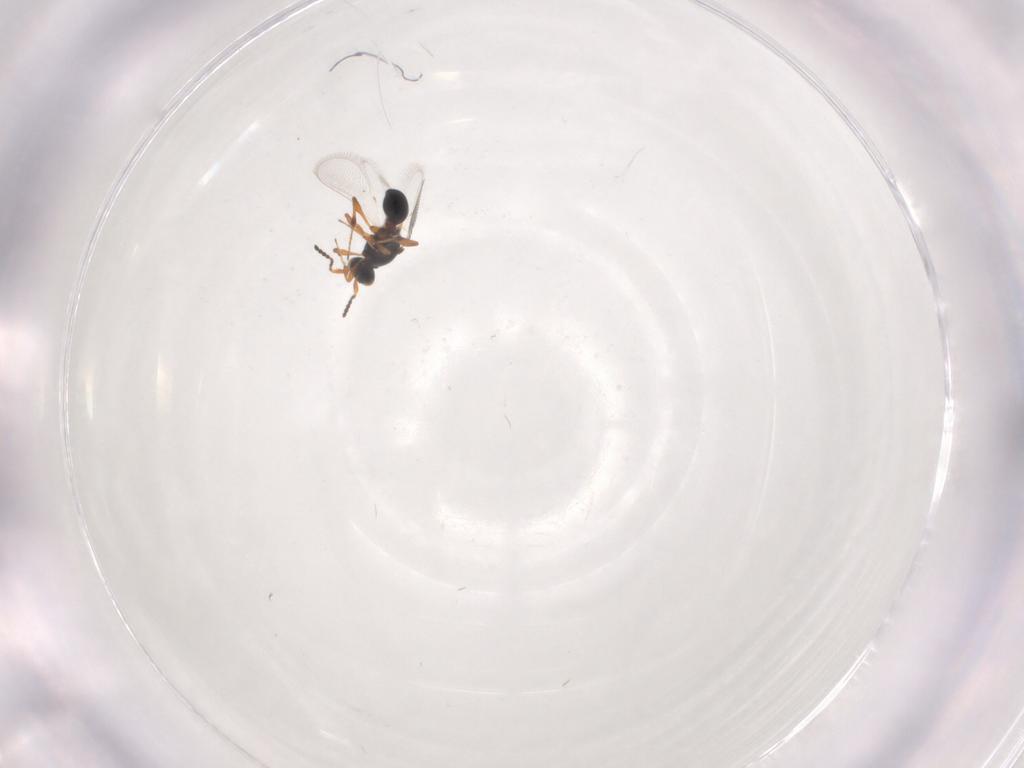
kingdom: Animalia
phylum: Arthropoda
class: Insecta
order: Hymenoptera
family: Platygastridae
